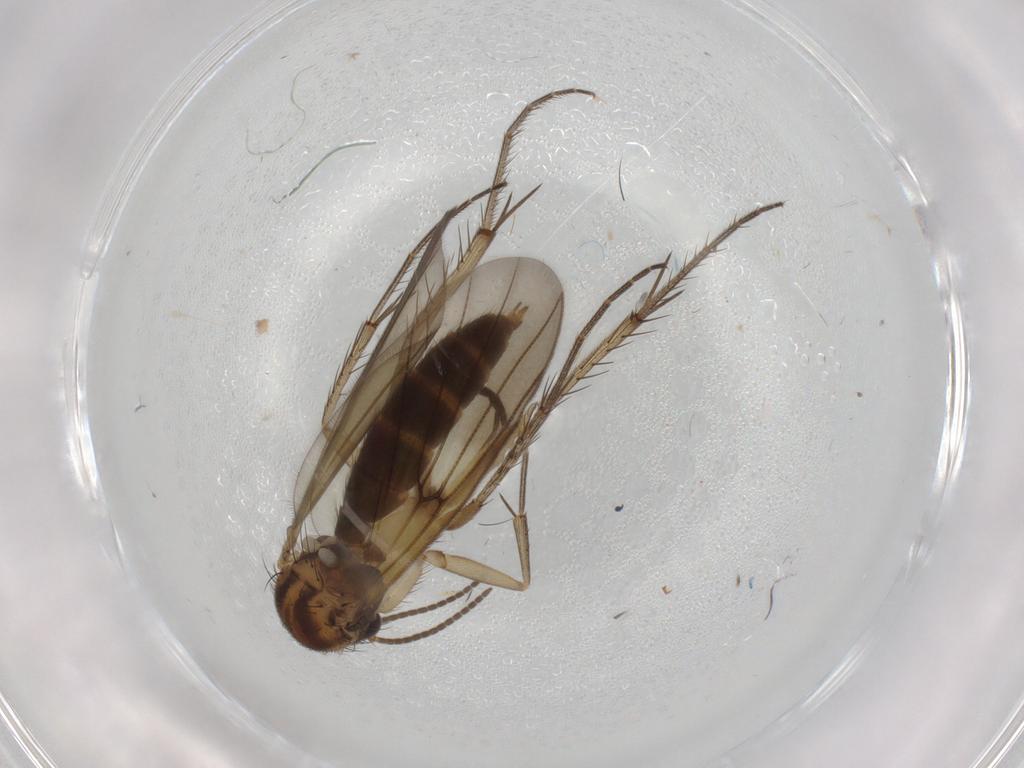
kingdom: Animalia
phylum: Arthropoda
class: Insecta
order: Diptera
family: Mycetophilidae
